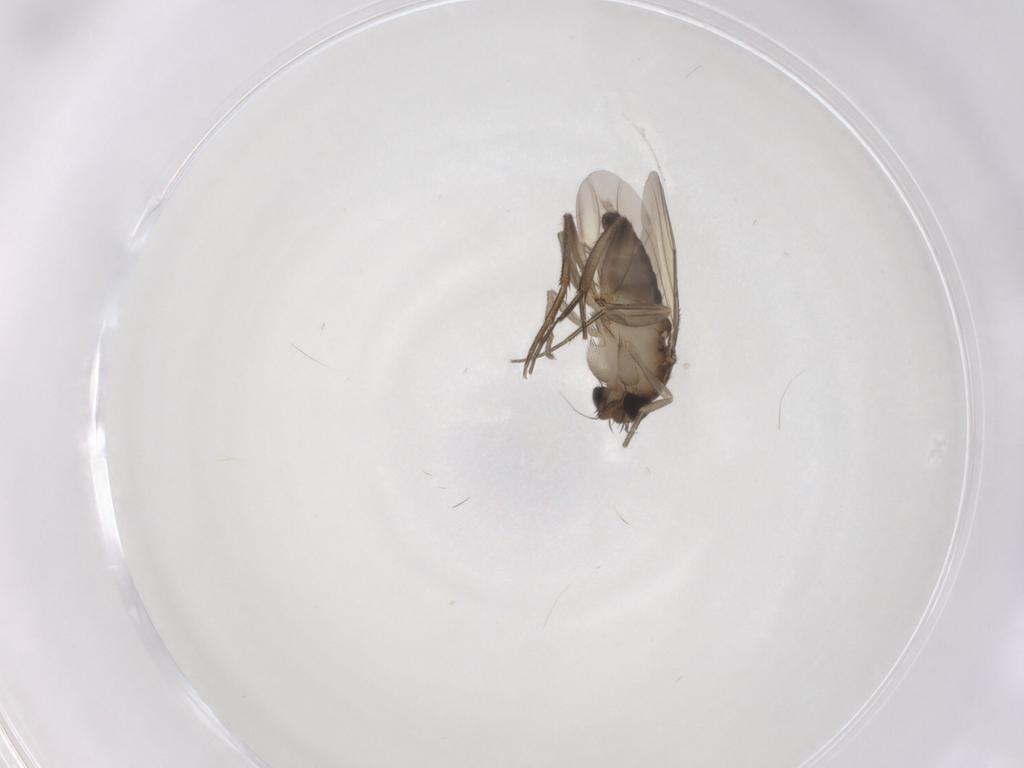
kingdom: Animalia
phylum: Arthropoda
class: Insecta
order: Diptera
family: Phoridae
